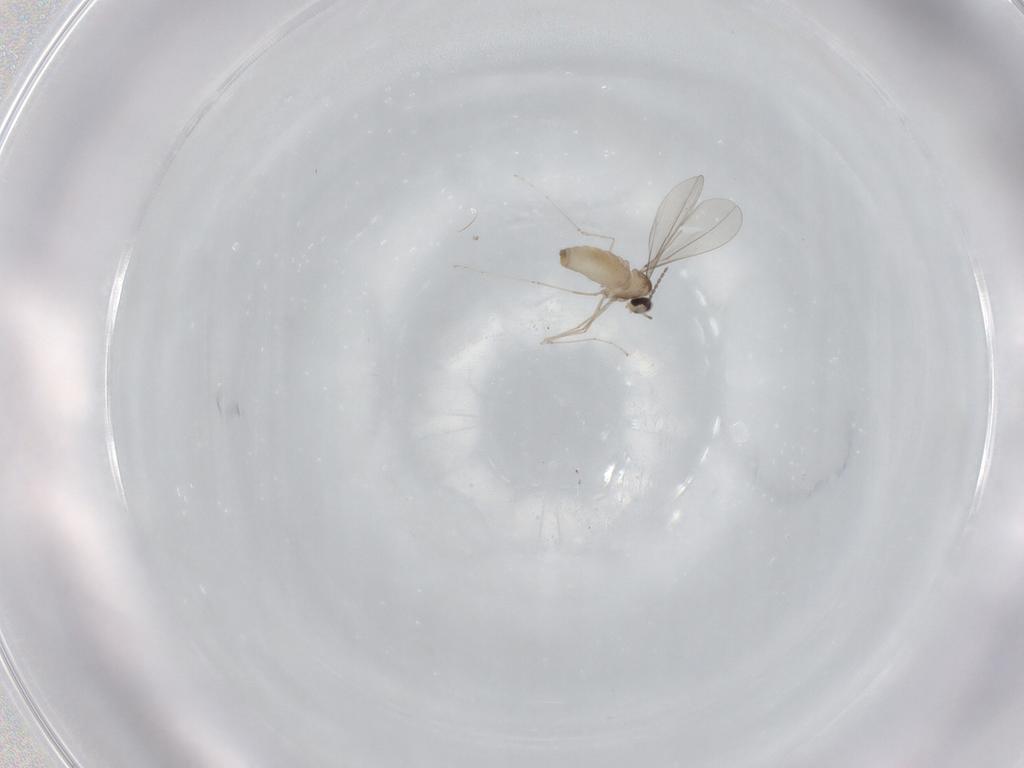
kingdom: Animalia
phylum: Arthropoda
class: Insecta
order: Diptera
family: Cecidomyiidae
